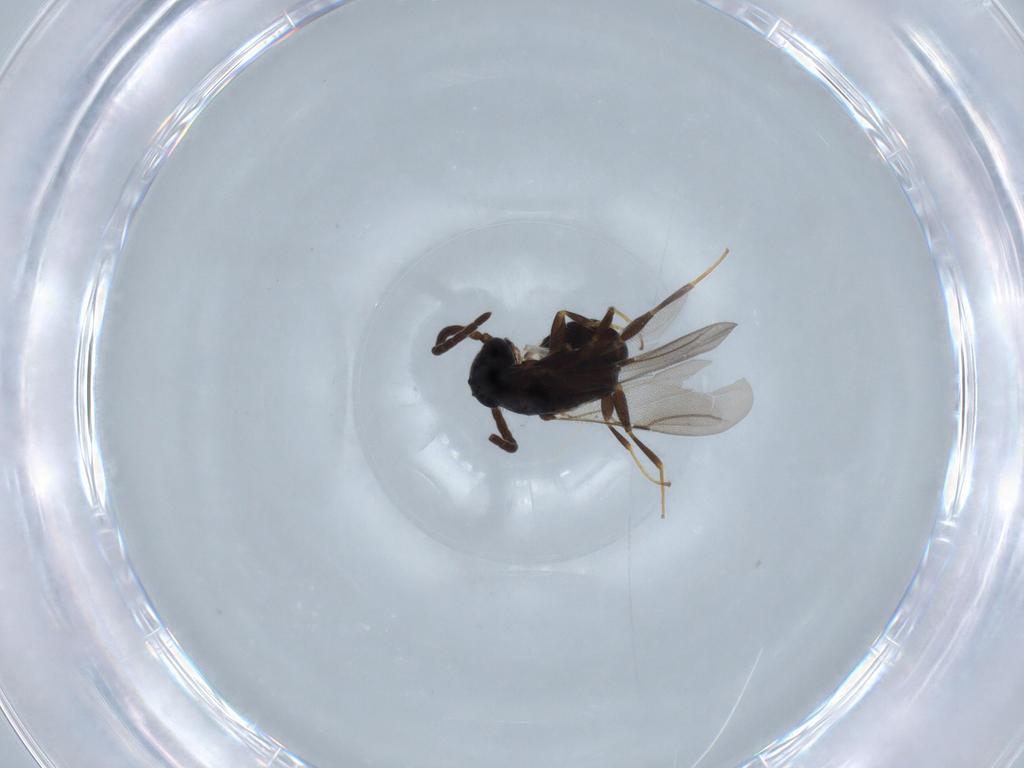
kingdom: Animalia
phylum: Arthropoda
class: Insecta
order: Hymenoptera
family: Bethylidae
